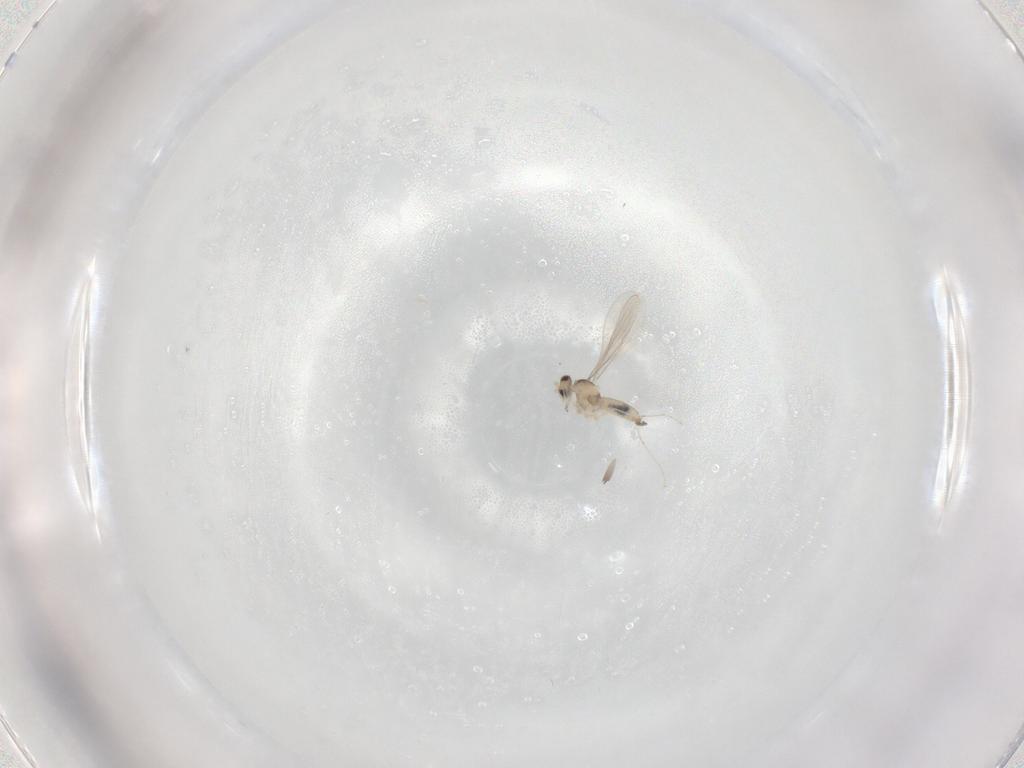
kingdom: Animalia
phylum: Arthropoda
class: Insecta
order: Diptera
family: Cecidomyiidae
